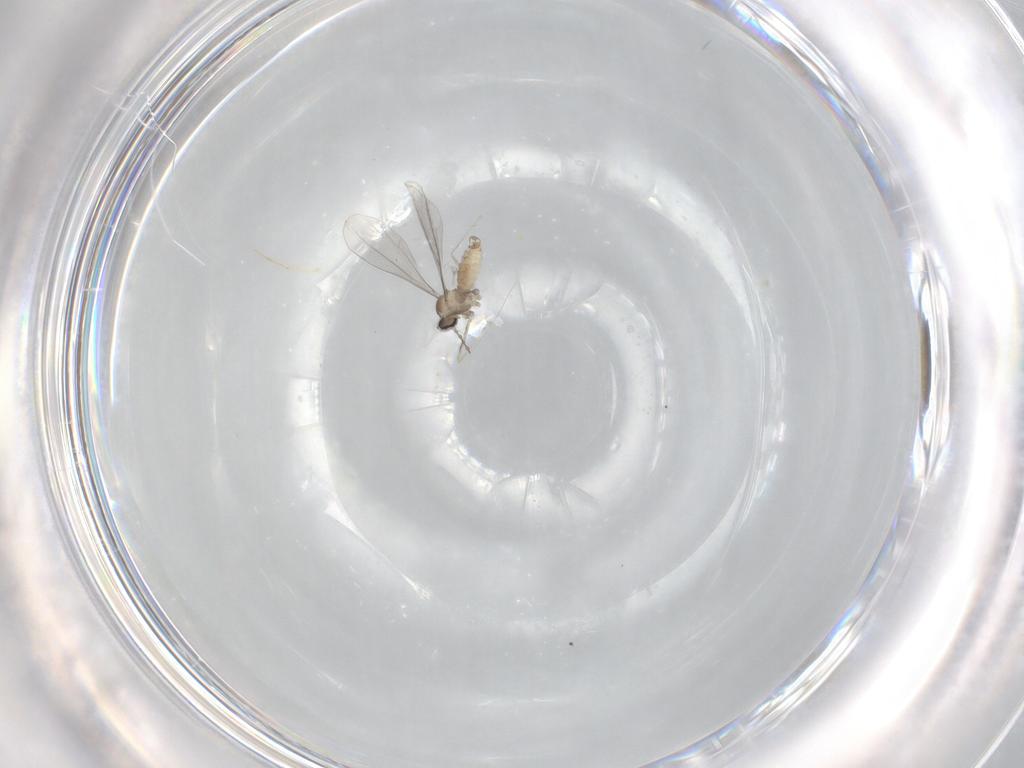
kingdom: Animalia
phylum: Arthropoda
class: Insecta
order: Diptera
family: Cecidomyiidae
